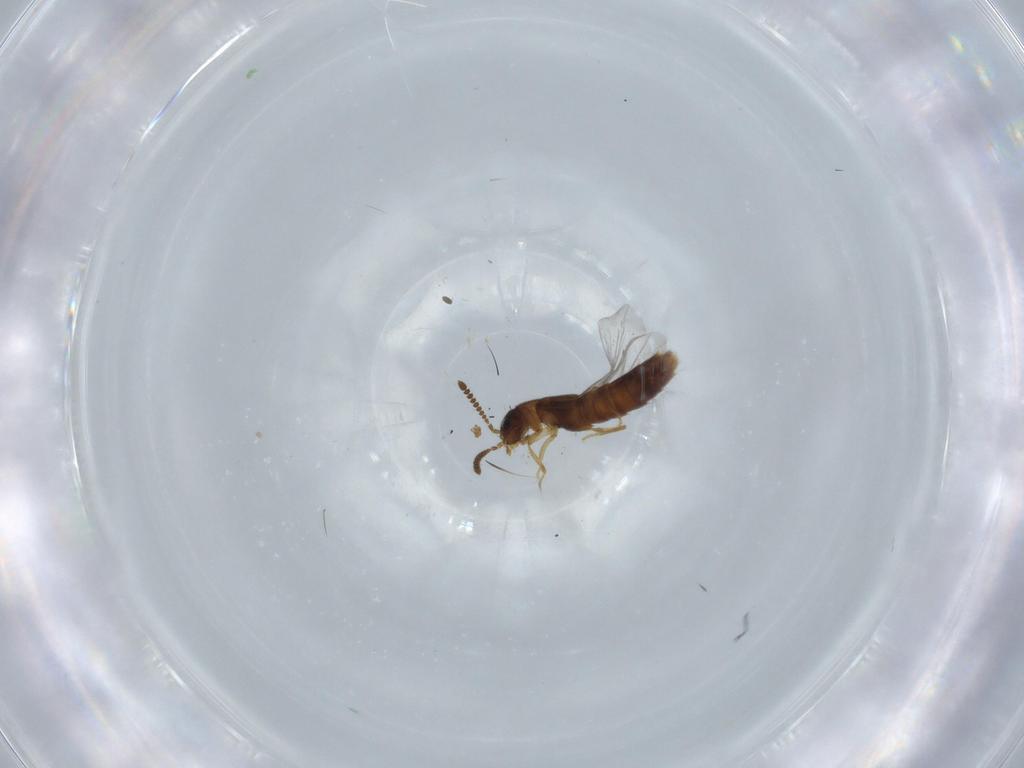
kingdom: Animalia
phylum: Arthropoda
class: Insecta
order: Coleoptera
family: Staphylinidae
